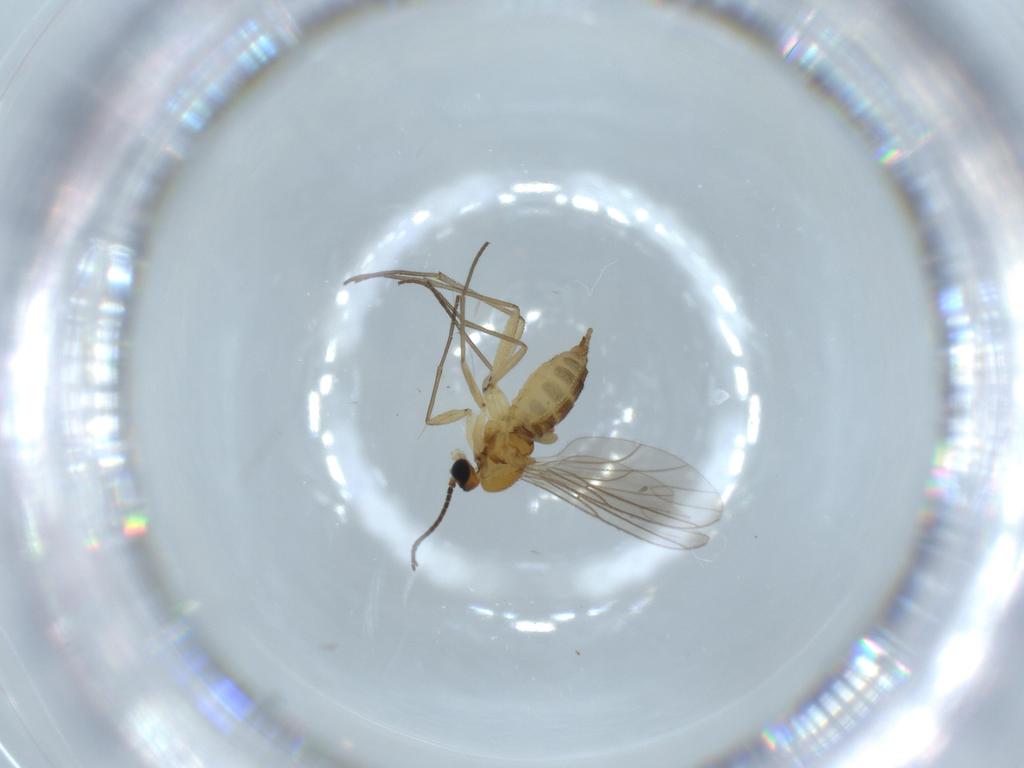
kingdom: Animalia
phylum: Arthropoda
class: Insecta
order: Diptera
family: Sciaridae
